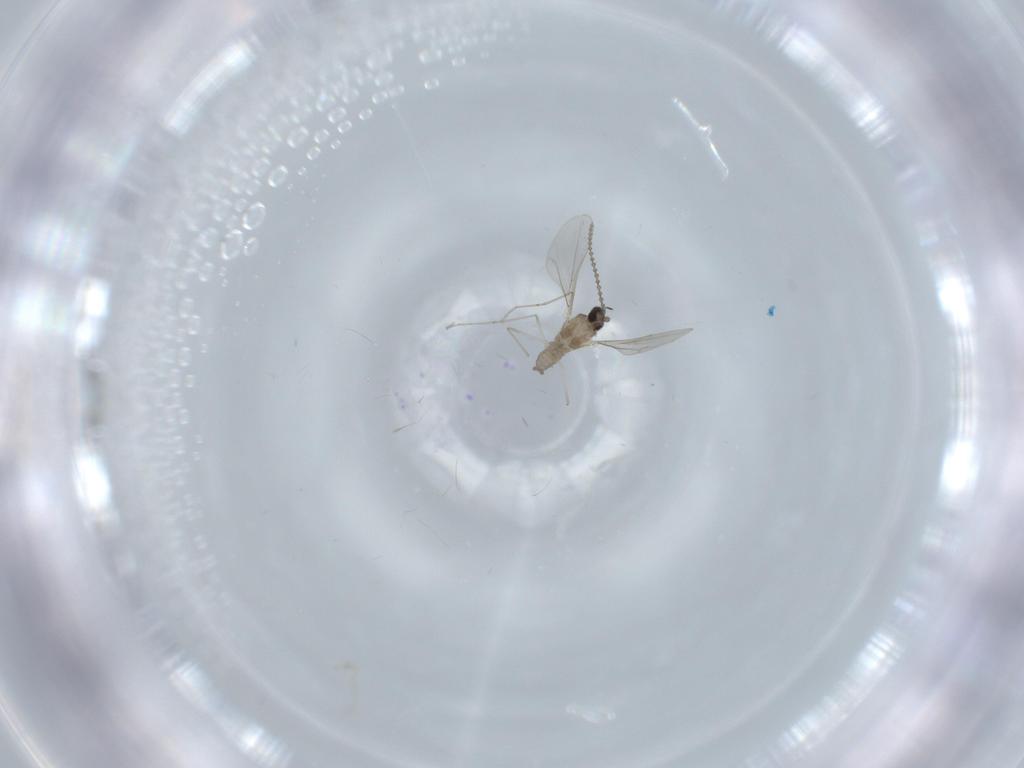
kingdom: Animalia
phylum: Arthropoda
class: Insecta
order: Diptera
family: Cecidomyiidae
